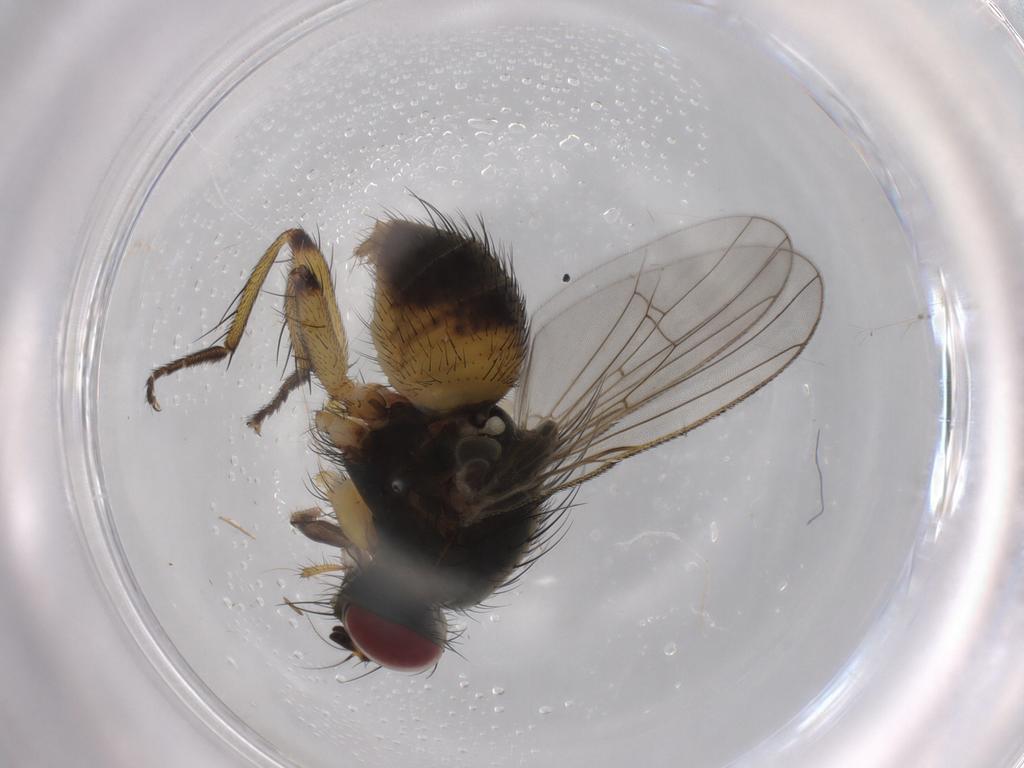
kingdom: Animalia
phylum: Arthropoda
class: Insecta
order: Diptera
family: Muscidae
